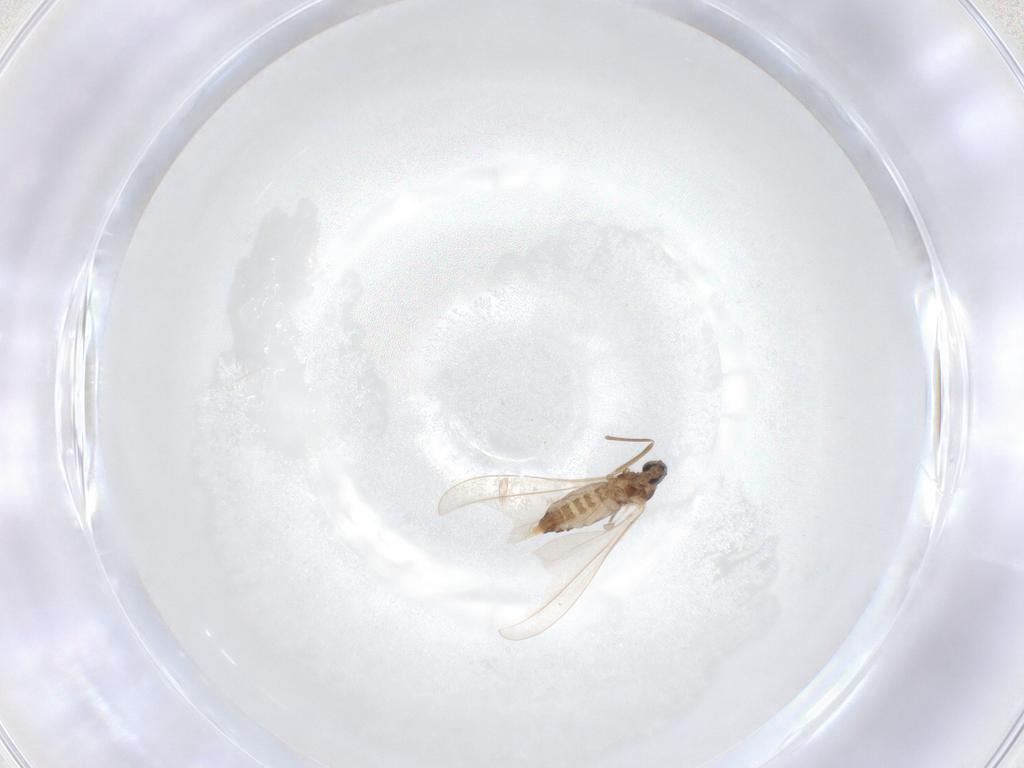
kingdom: Animalia
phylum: Arthropoda
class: Insecta
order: Diptera
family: Cecidomyiidae
